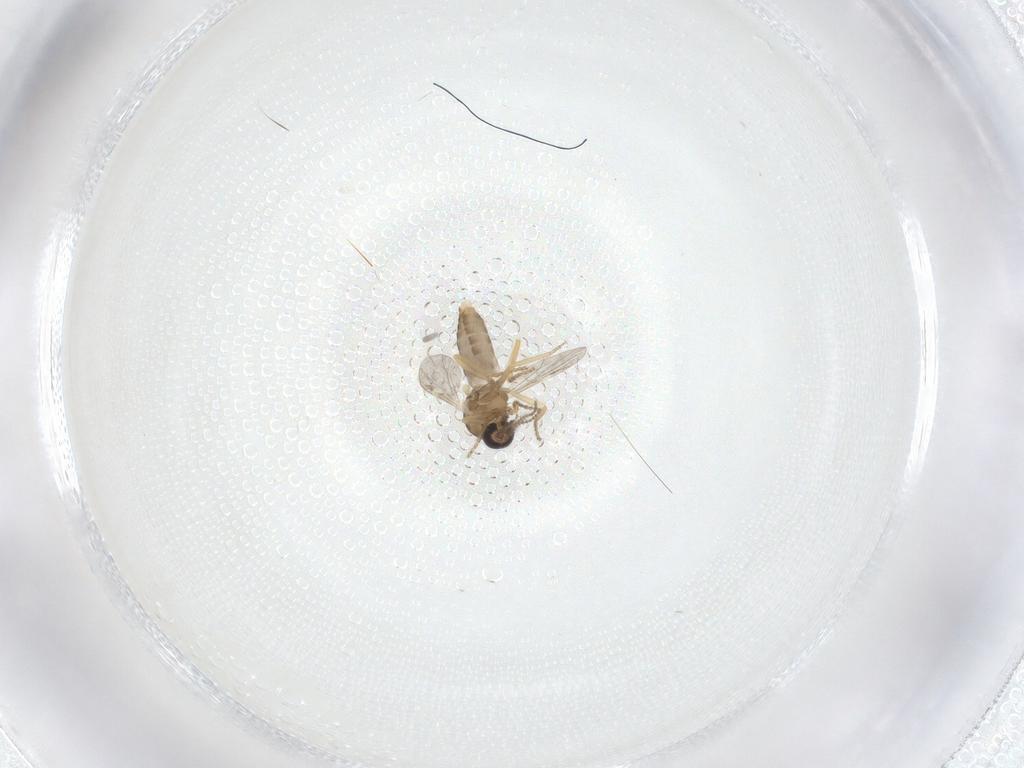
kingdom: Animalia
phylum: Arthropoda
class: Insecta
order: Diptera
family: Ceratopogonidae
